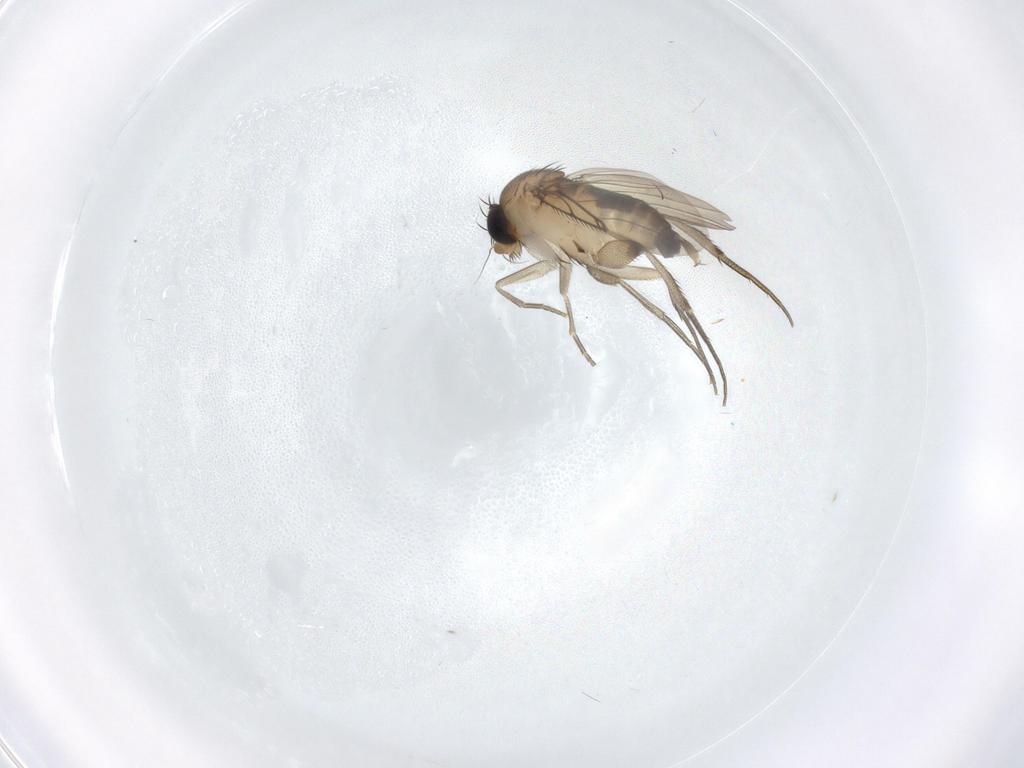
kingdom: Animalia
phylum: Arthropoda
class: Insecta
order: Diptera
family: Phoridae
